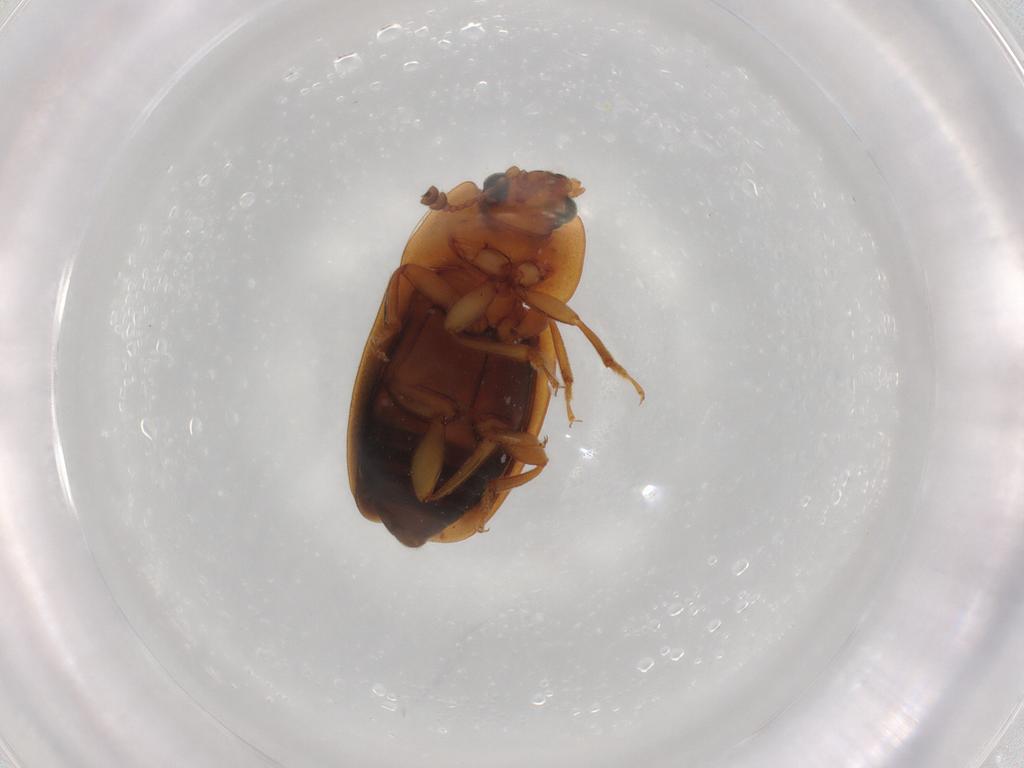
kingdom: Animalia
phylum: Arthropoda
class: Insecta
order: Coleoptera
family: Nitidulidae
